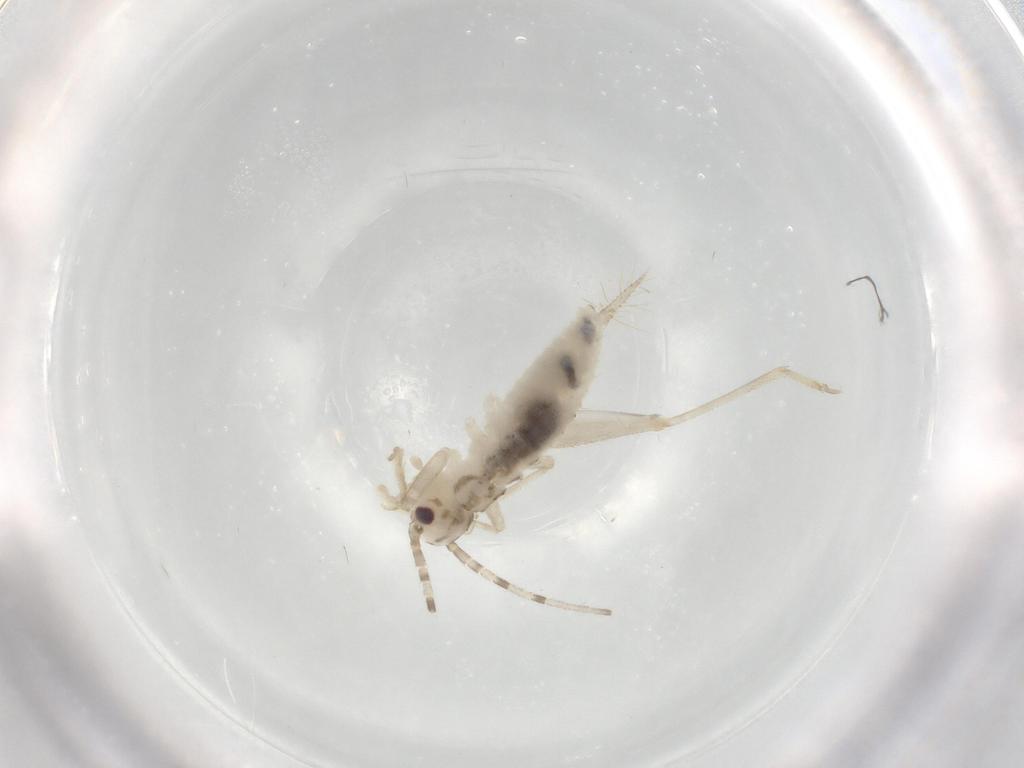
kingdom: Animalia
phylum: Arthropoda
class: Insecta
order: Orthoptera
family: Trigonidiidae
